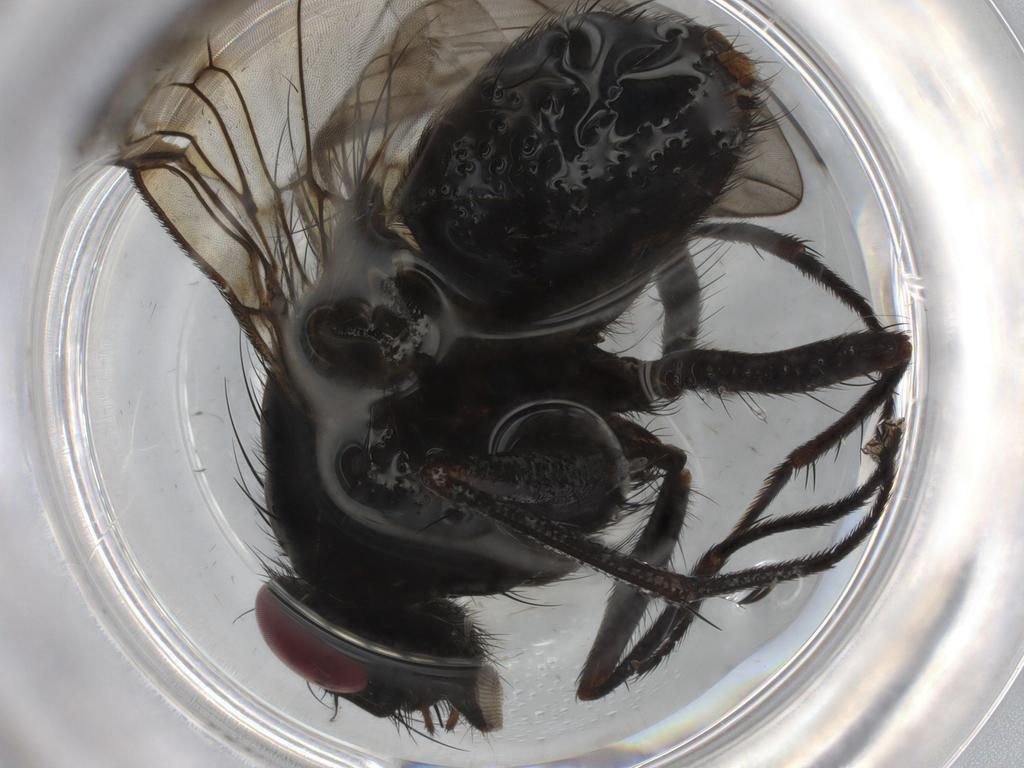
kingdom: Animalia
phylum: Arthropoda
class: Insecta
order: Diptera
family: Muscidae
